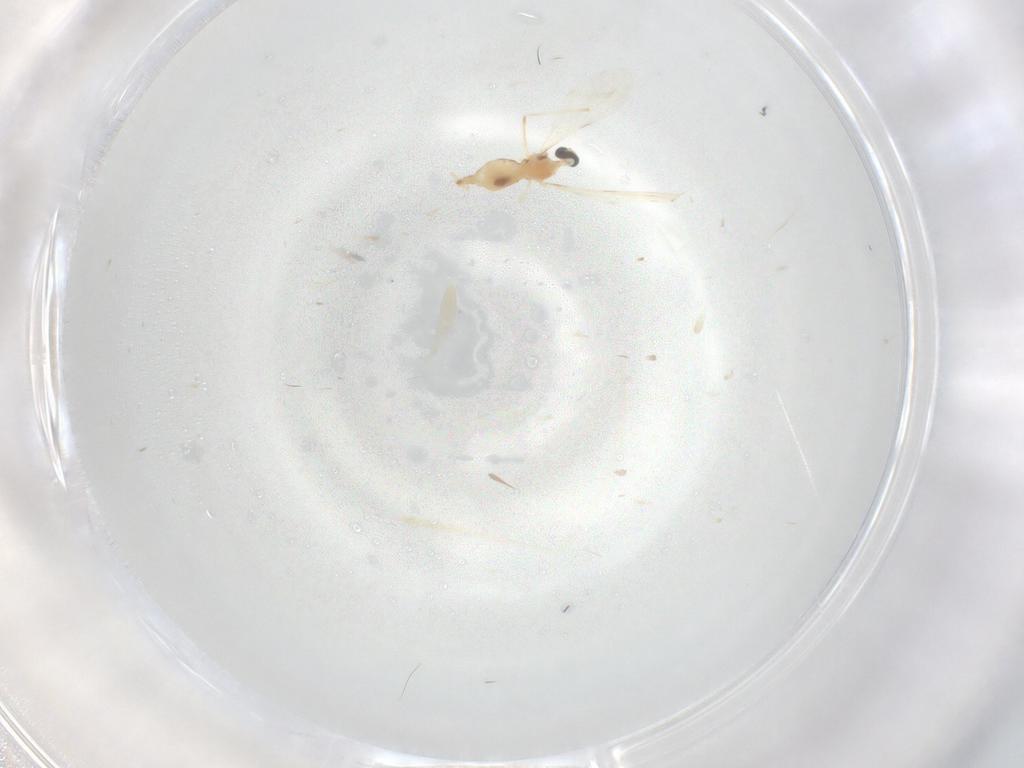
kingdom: Animalia
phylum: Arthropoda
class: Insecta
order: Diptera
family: Cecidomyiidae
